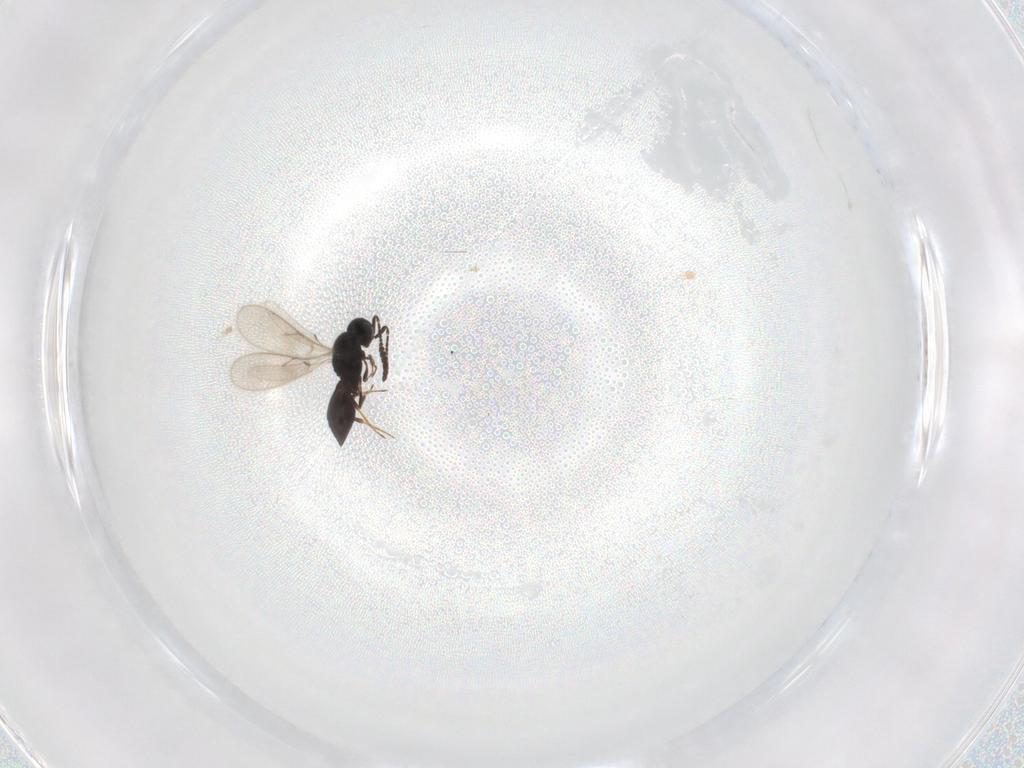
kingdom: Animalia
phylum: Arthropoda
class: Insecta
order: Hymenoptera
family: Scelionidae
